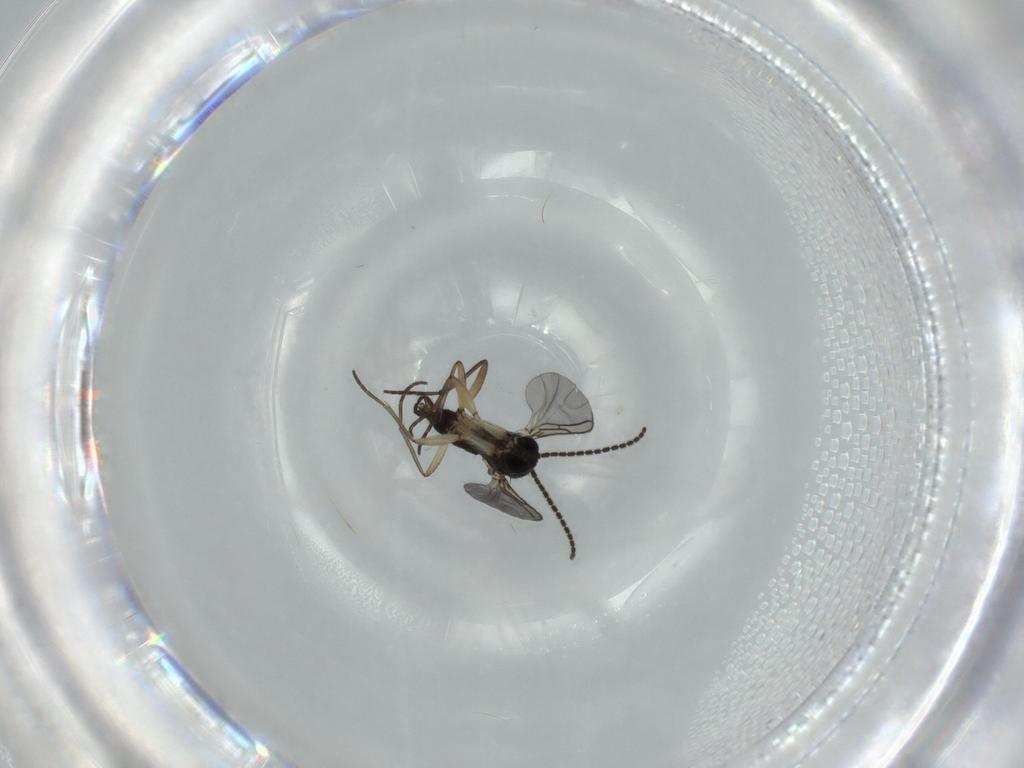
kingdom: Animalia
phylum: Arthropoda
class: Insecta
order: Diptera
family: Sciaridae
